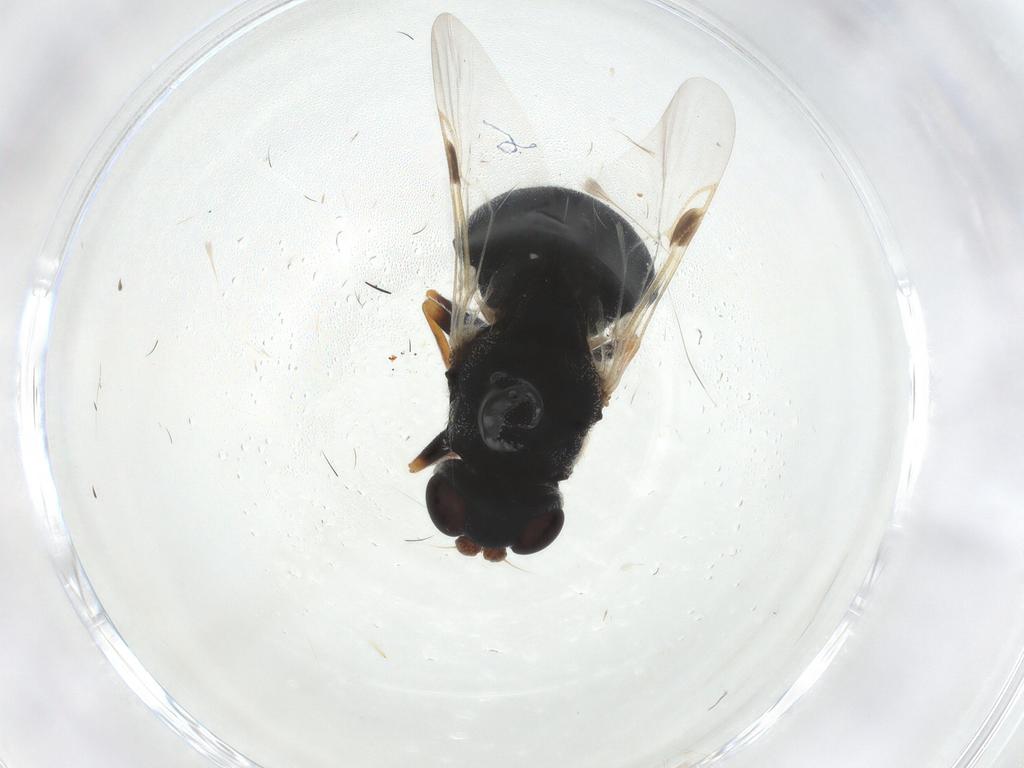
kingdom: Animalia
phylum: Arthropoda
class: Insecta
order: Diptera
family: Stratiomyidae
